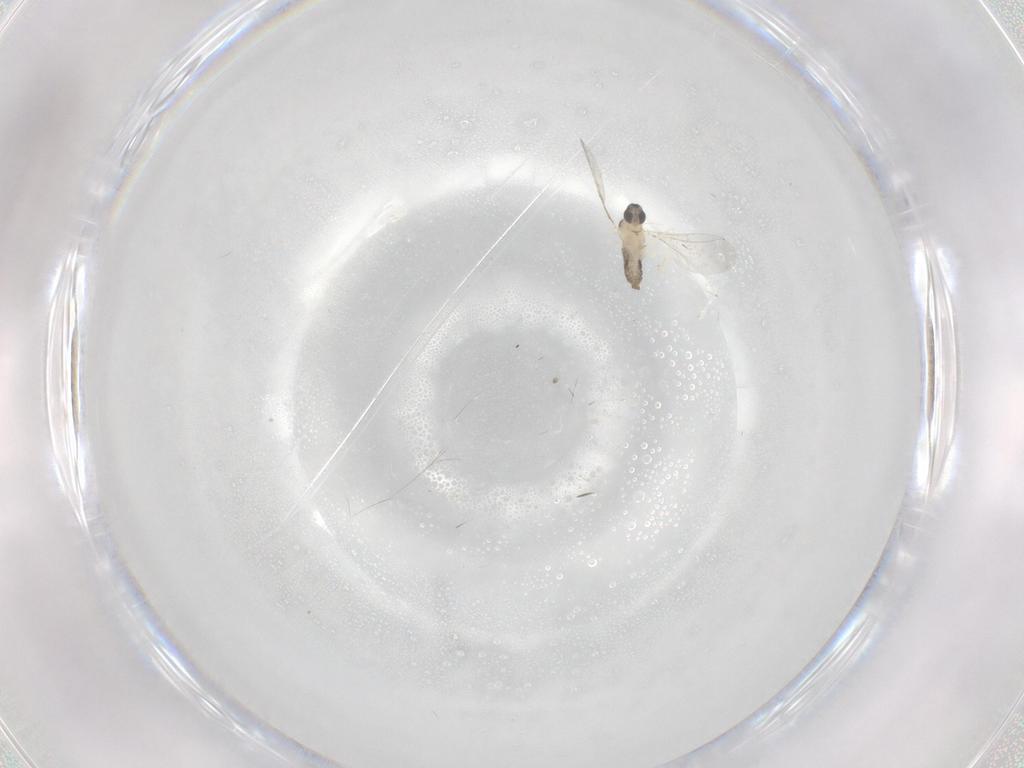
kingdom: Animalia
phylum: Arthropoda
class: Insecta
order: Diptera
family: Cecidomyiidae
